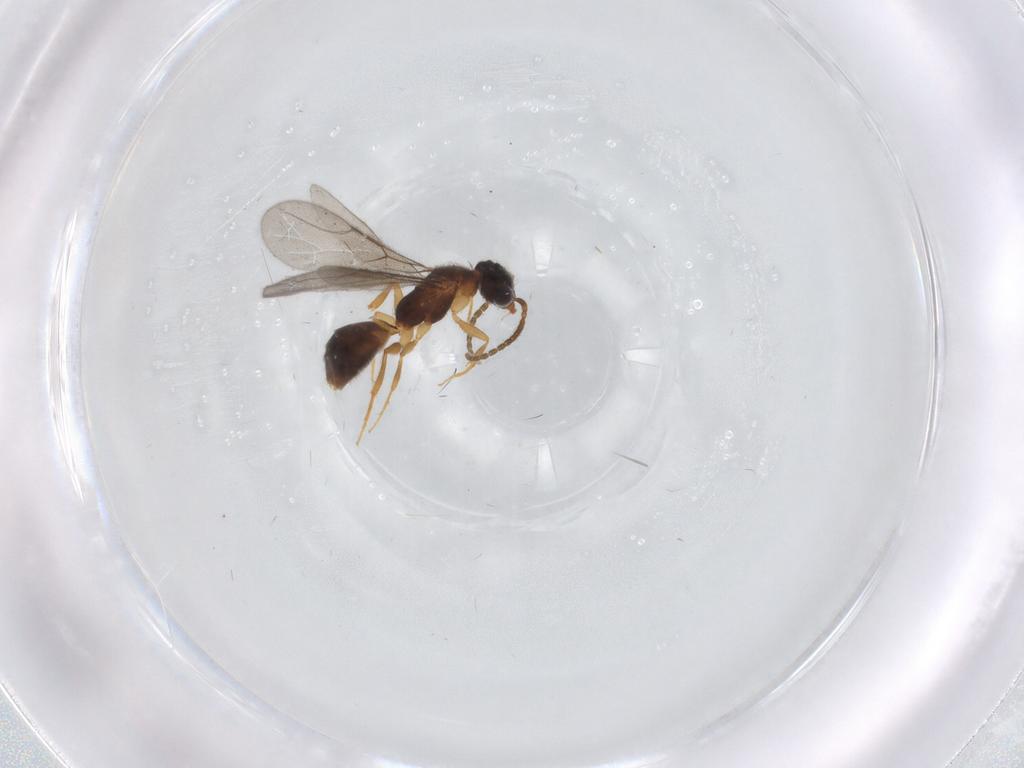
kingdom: Animalia
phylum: Arthropoda
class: Insecta
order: Hymenoptera
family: Bethylidae
